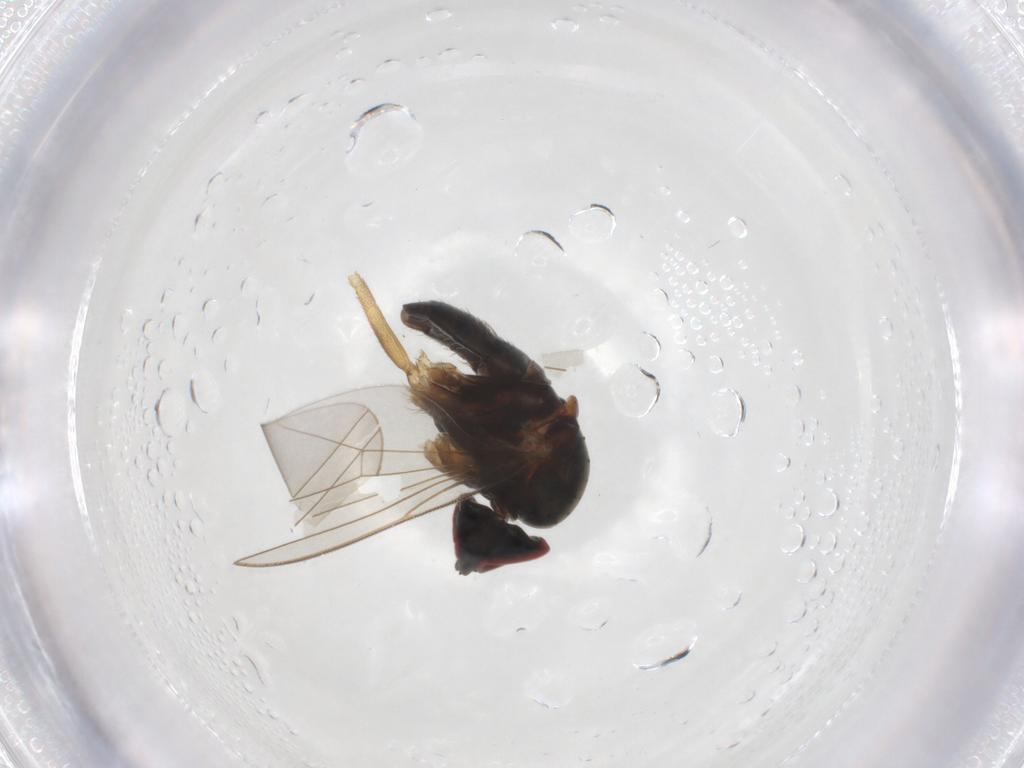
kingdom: Animalia
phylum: Arthropoda
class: Insecta
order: Diptera
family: Dolichopodidae
